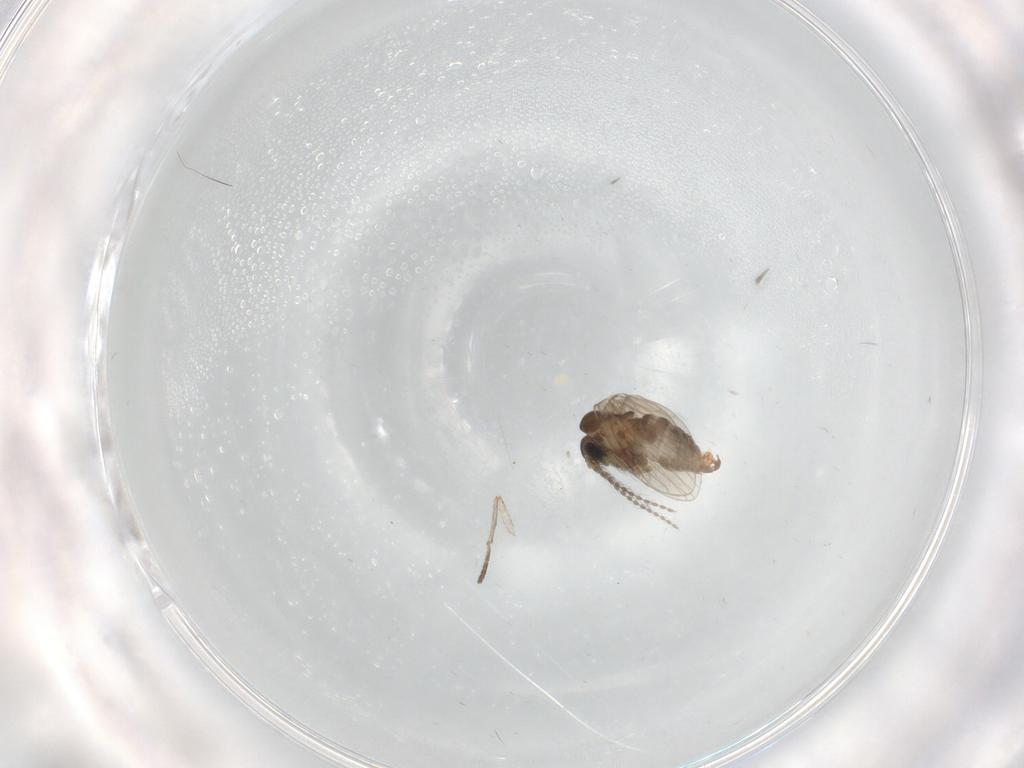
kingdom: Animalia
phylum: Arthropoda
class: Insecta
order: Diptera
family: Psychodidae
